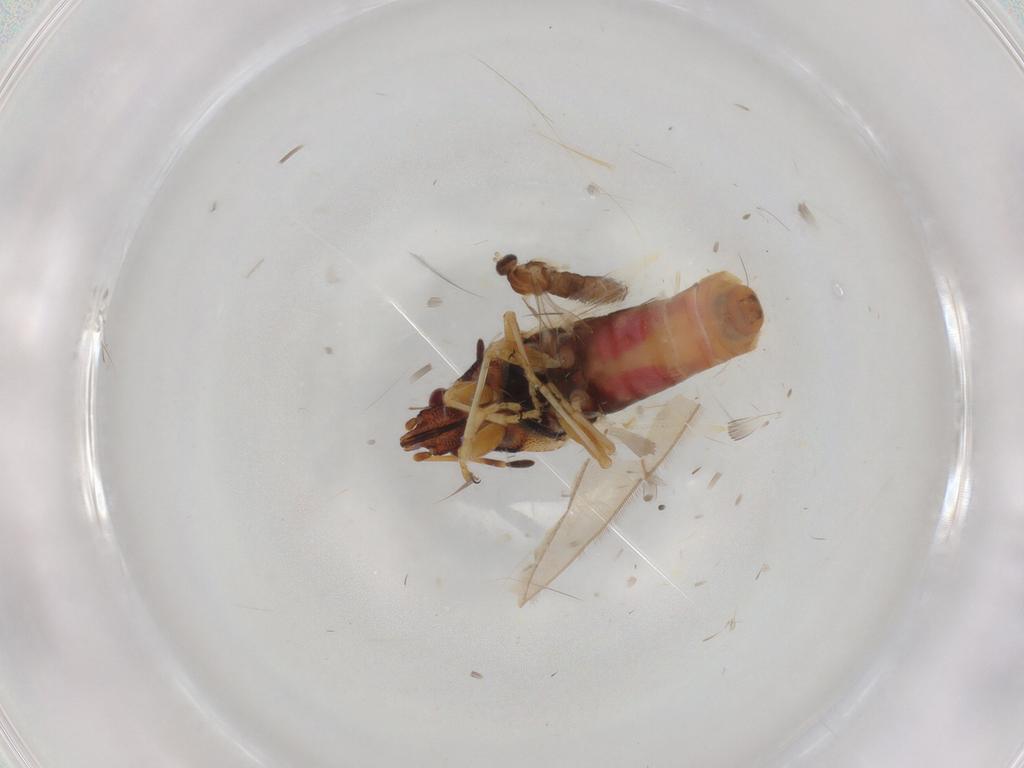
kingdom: Animalia
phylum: Arthropoda
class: Insecta
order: Diptera
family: Cecidomyiidae
